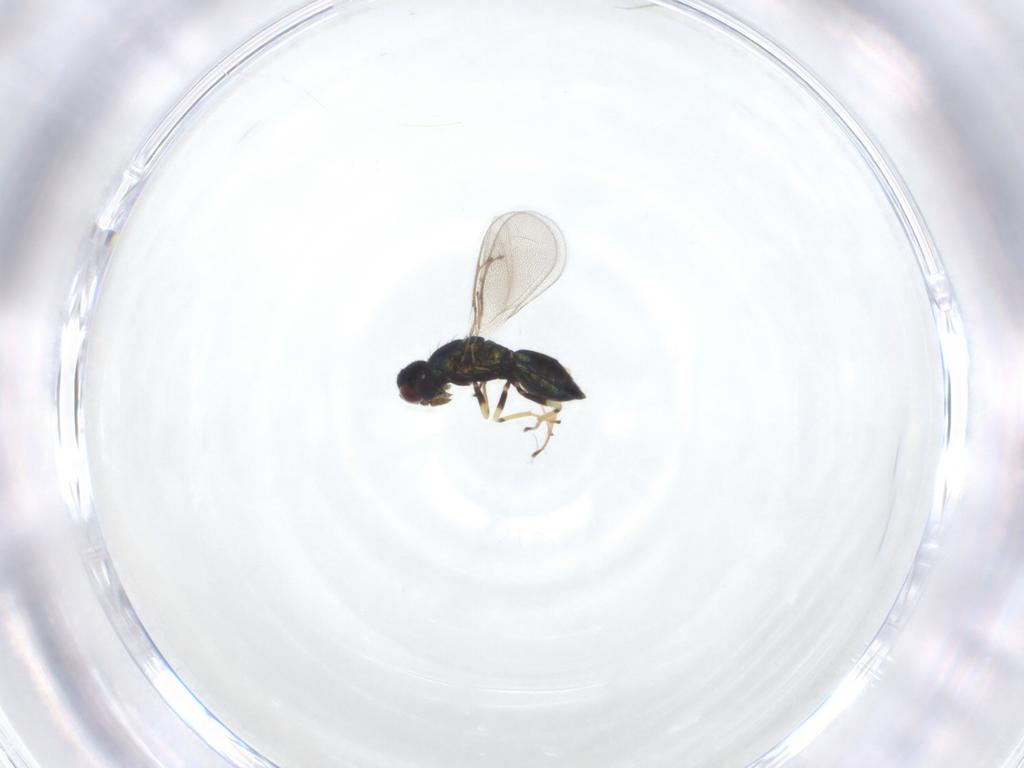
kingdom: Animalia
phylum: Arthropoda
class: Insecta
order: Hymenoptera
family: Eulophidae
